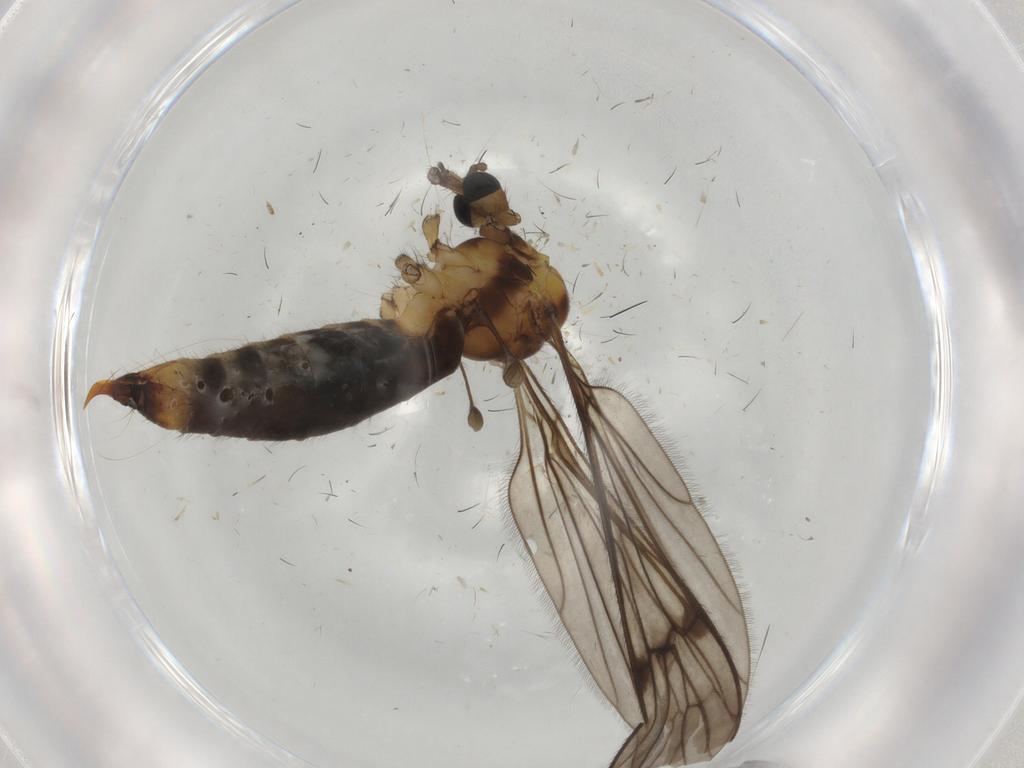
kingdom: Animalia
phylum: Arthropoda
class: Insecta
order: Diptera
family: Limoniidae
